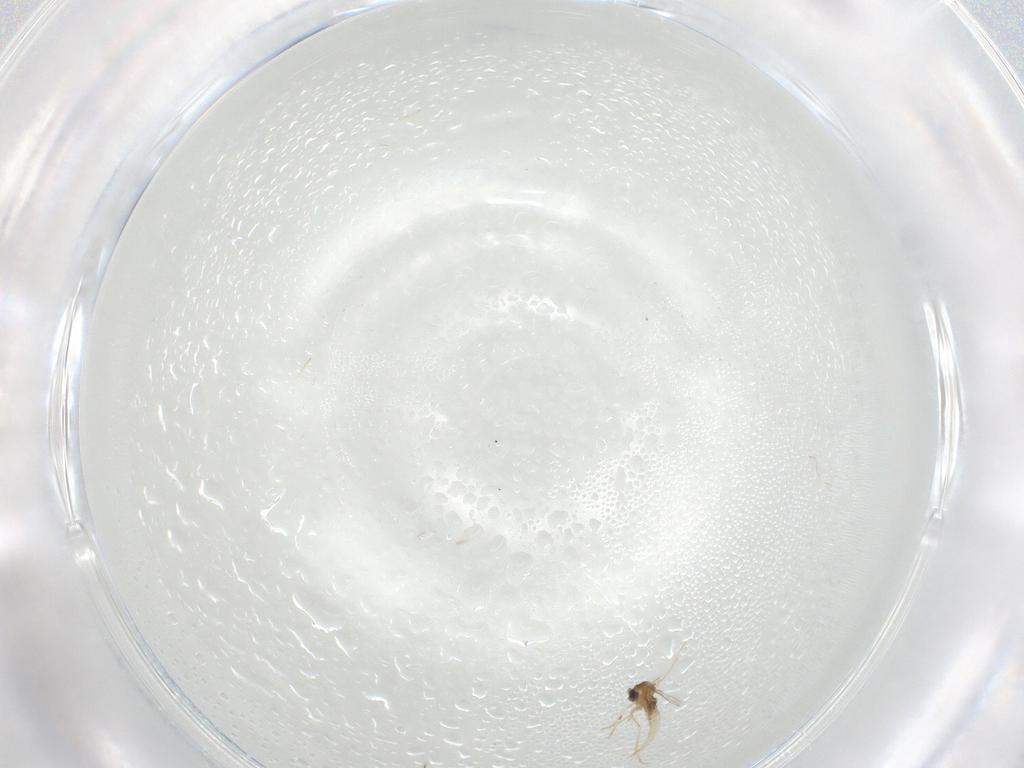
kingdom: Animalia
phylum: Arthropoda
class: Insecta
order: Diptera
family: Cecidomyiidae
